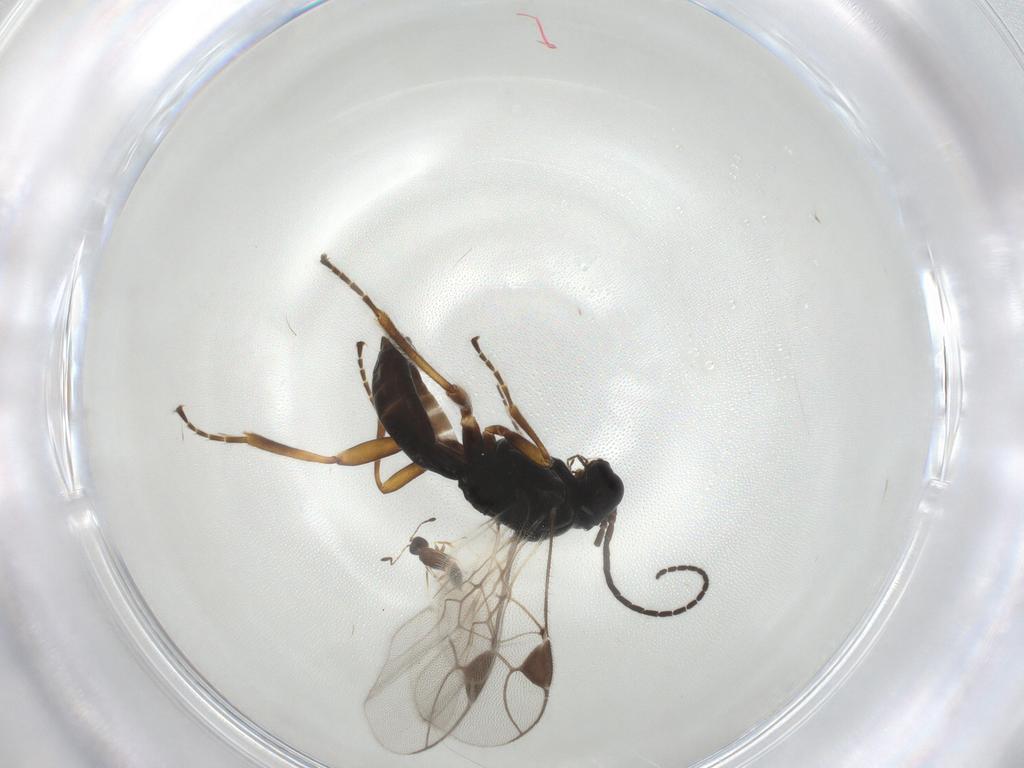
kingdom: Animalia
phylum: Arthropoda
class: Insecta
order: Hymenoptera
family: Braconidae
